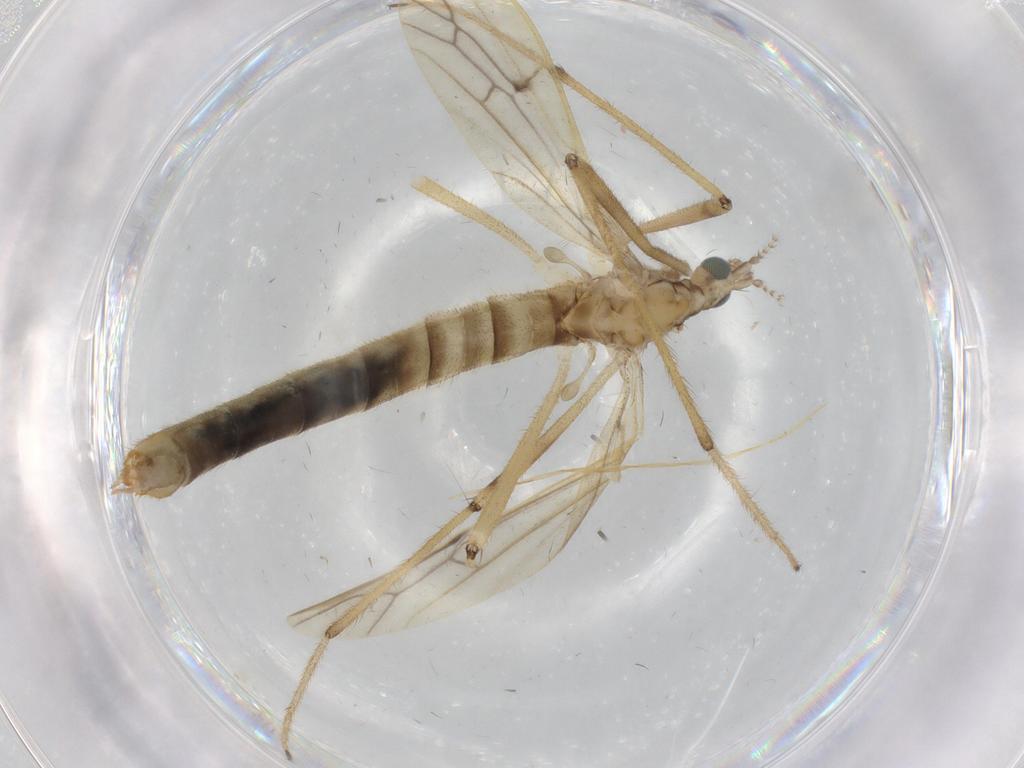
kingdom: Animalia
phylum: Arthropoda
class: Insecta
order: Diptera
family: Limoniidae
